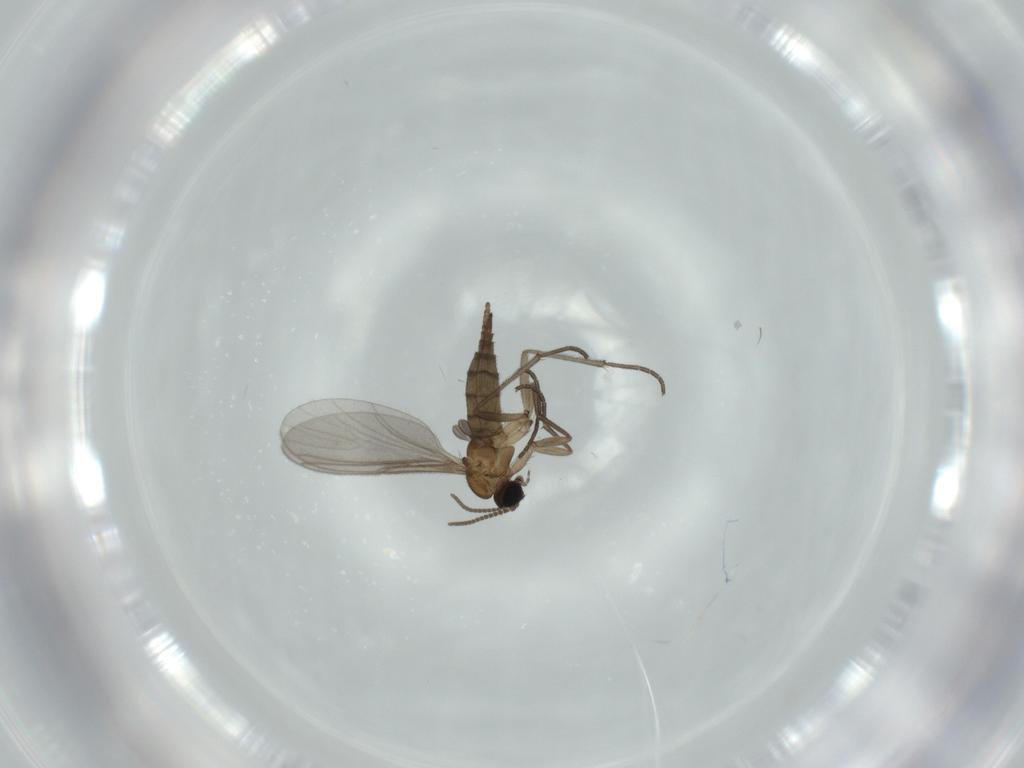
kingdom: Animalia
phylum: Arthropoda
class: Insecta
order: Diptera
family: Sciaridae
